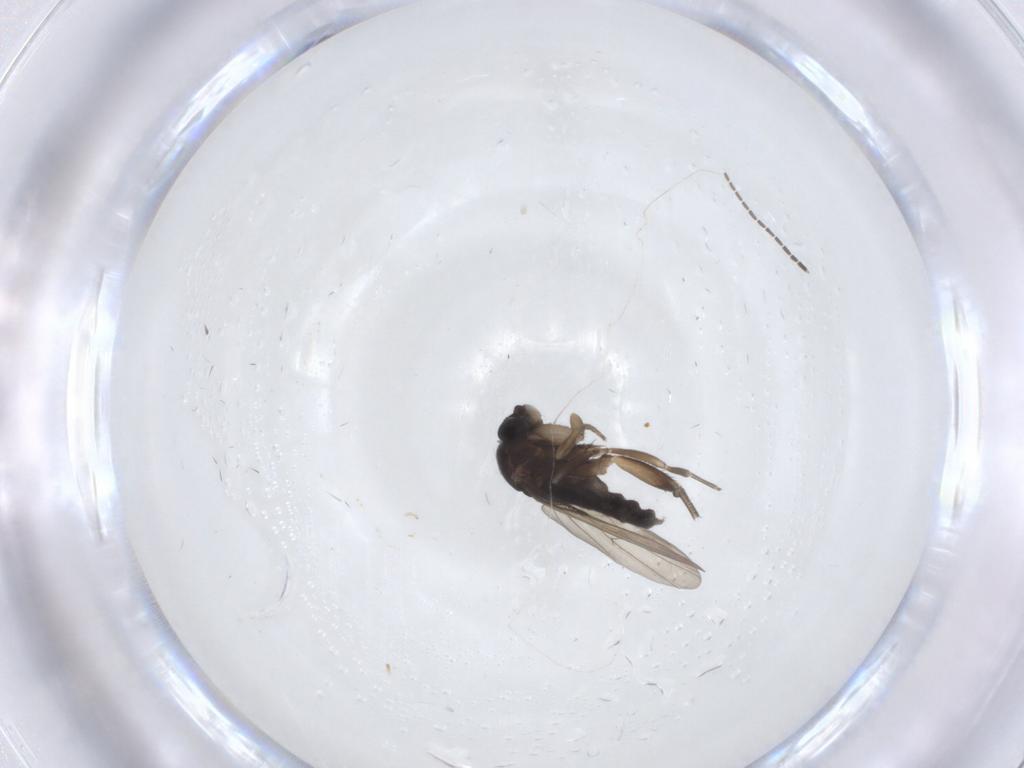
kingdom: Animalia
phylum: Arthropoda
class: Insecta
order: Diptera
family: Phoridae
